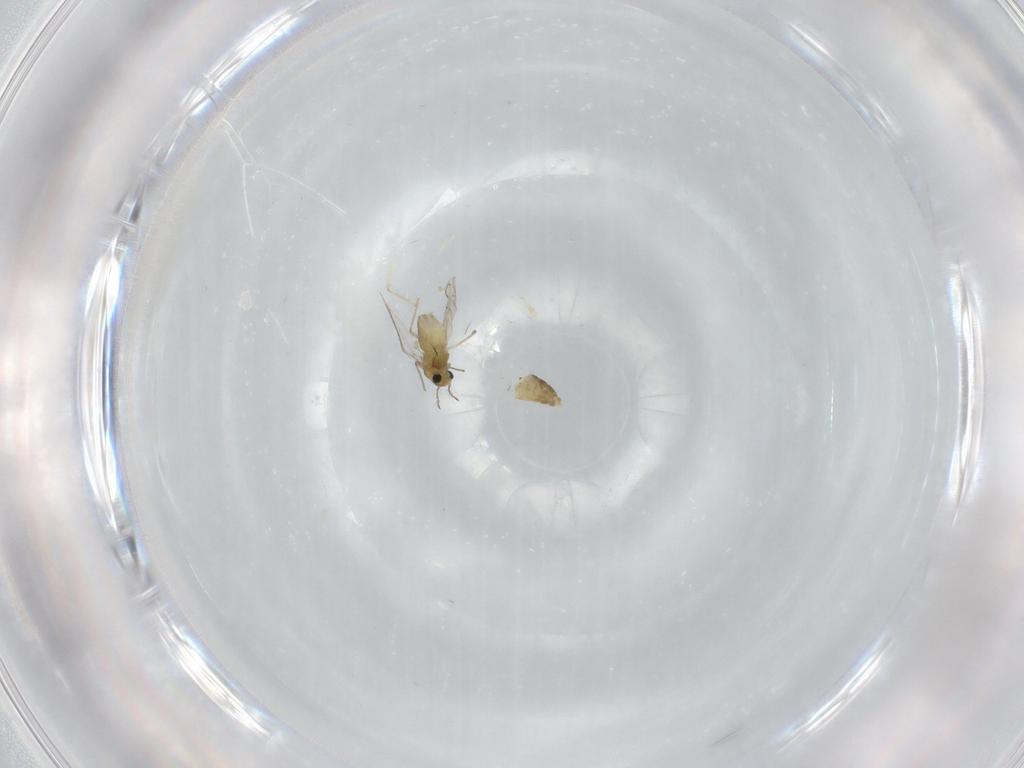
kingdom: Animalia
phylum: Arthropoda
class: Insecta
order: Diptera
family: Chironomidae
